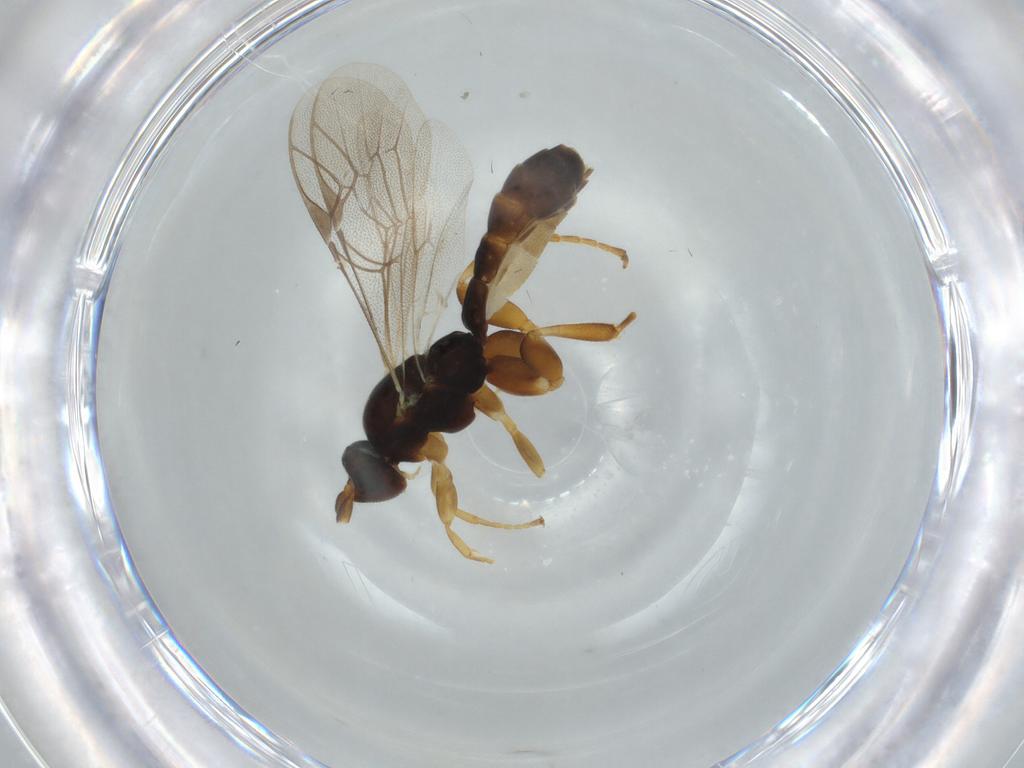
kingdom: Animalia
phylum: Arthropoda
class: Insecta
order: Hymenoptera
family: Ichneumonidae
